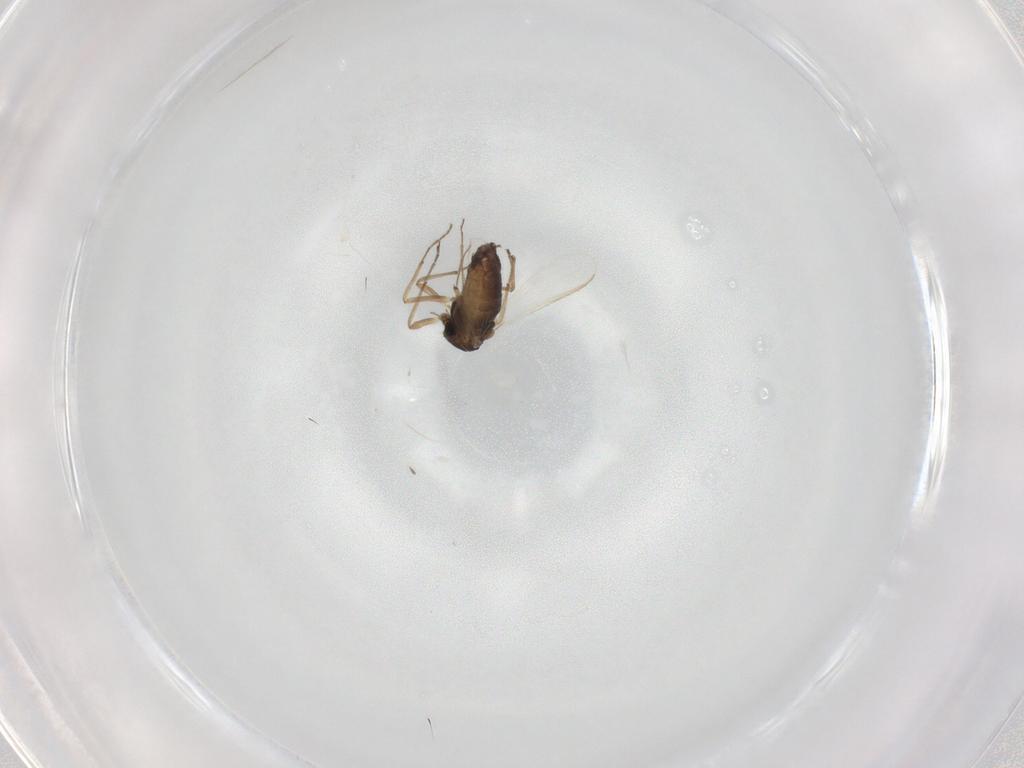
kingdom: Animalia
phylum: Arthropoda
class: Insecta
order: Diptera
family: Chironomidae
